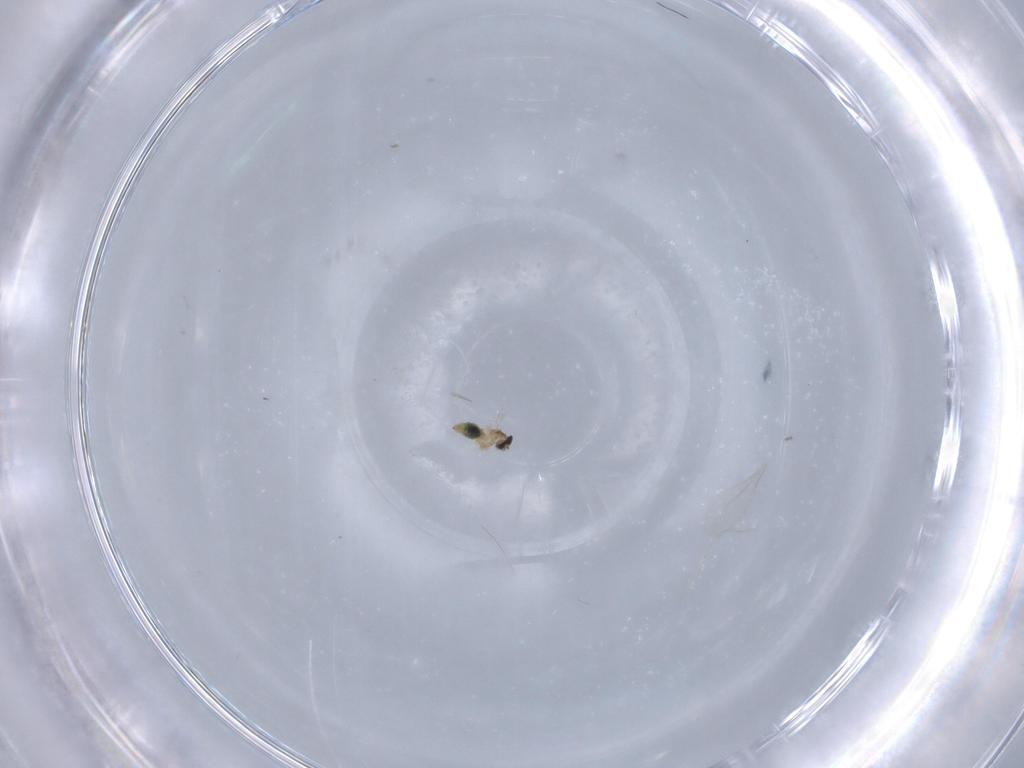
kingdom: Animalia
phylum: Arthropoda
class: Insecta
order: Diptera
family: Cecidomyiidae
